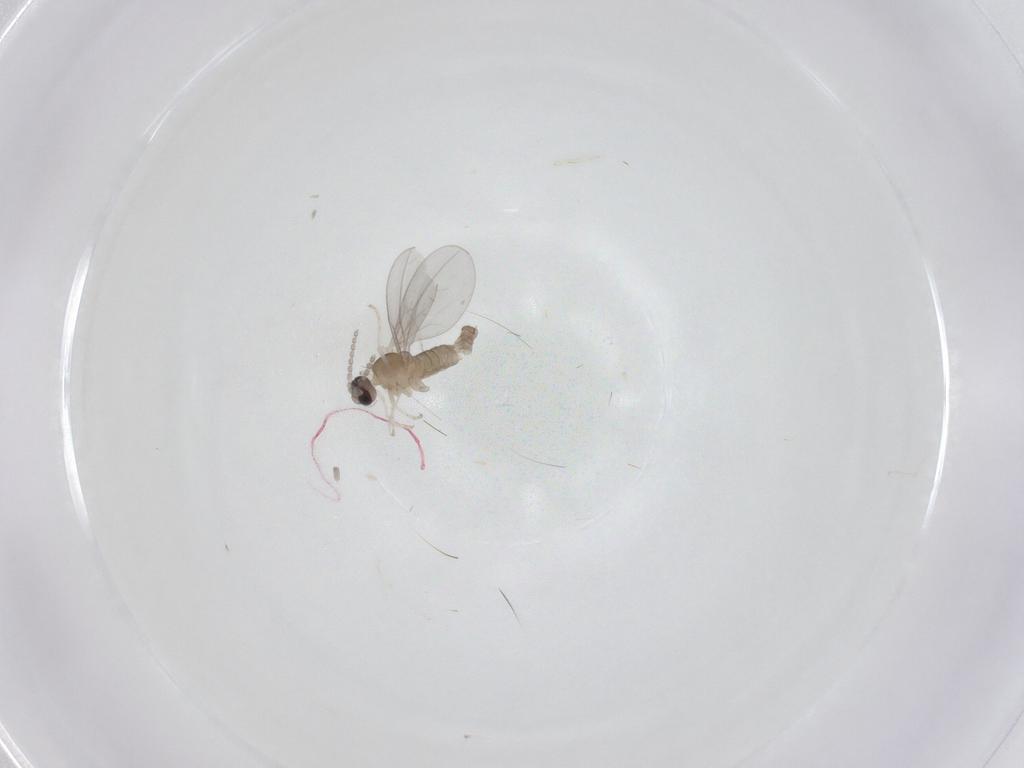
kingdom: Animalia
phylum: Arthropoda
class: Insecta
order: Diptera
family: Cecidomyiidae
